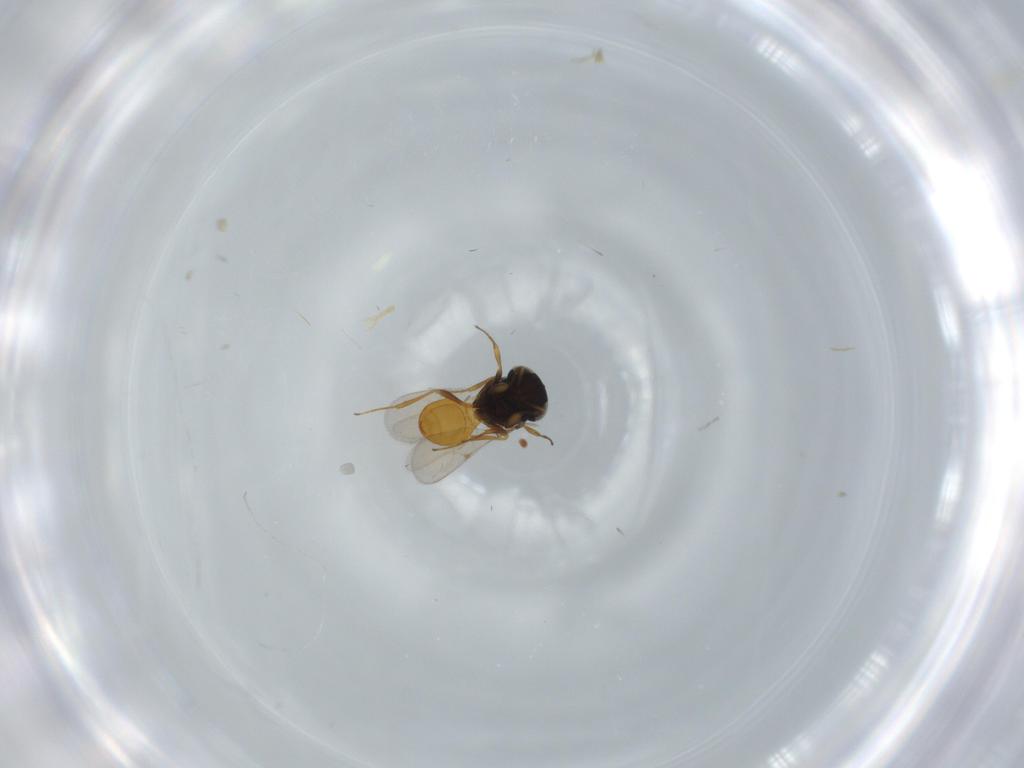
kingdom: Animalia
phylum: Arthropoda
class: Insecta
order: Hymenoptera
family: Scelionidae
